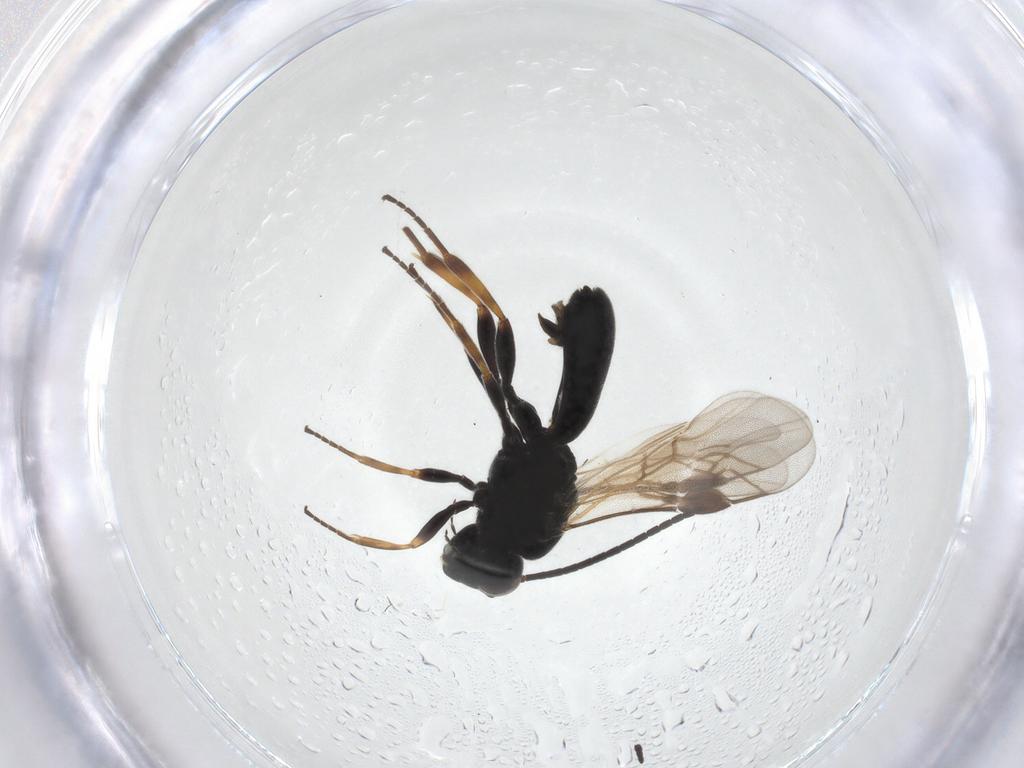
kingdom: Animalia
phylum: Arthropoda
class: Insecta
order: Hymenoptera
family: Braconidae
